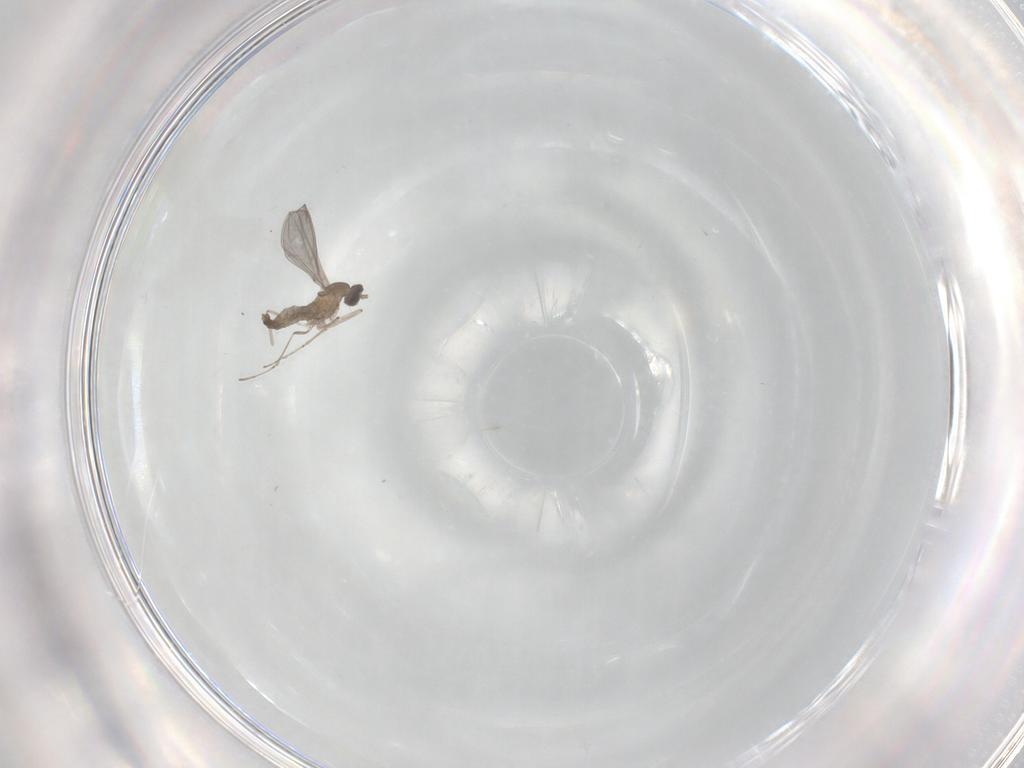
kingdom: Animalia
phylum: Arthropoda
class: Insecta
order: Diptera
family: Cecidomyiidae
